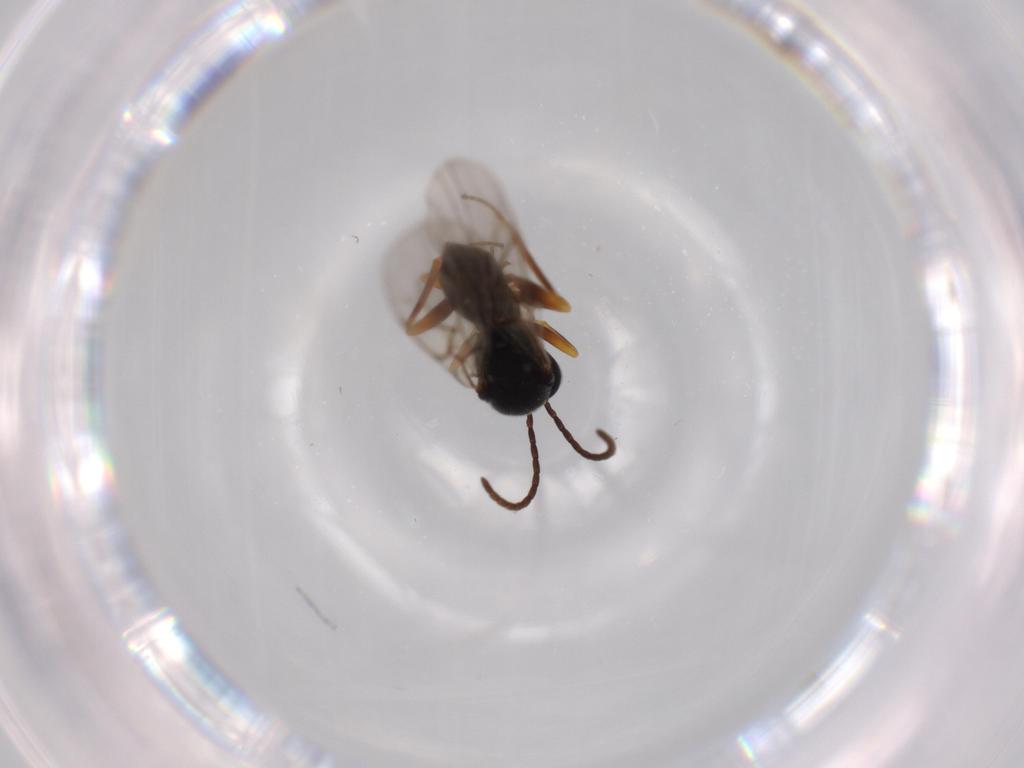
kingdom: Animalia
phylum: Arthropoda
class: Insecta
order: Hymenoptera
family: Cynipidae
